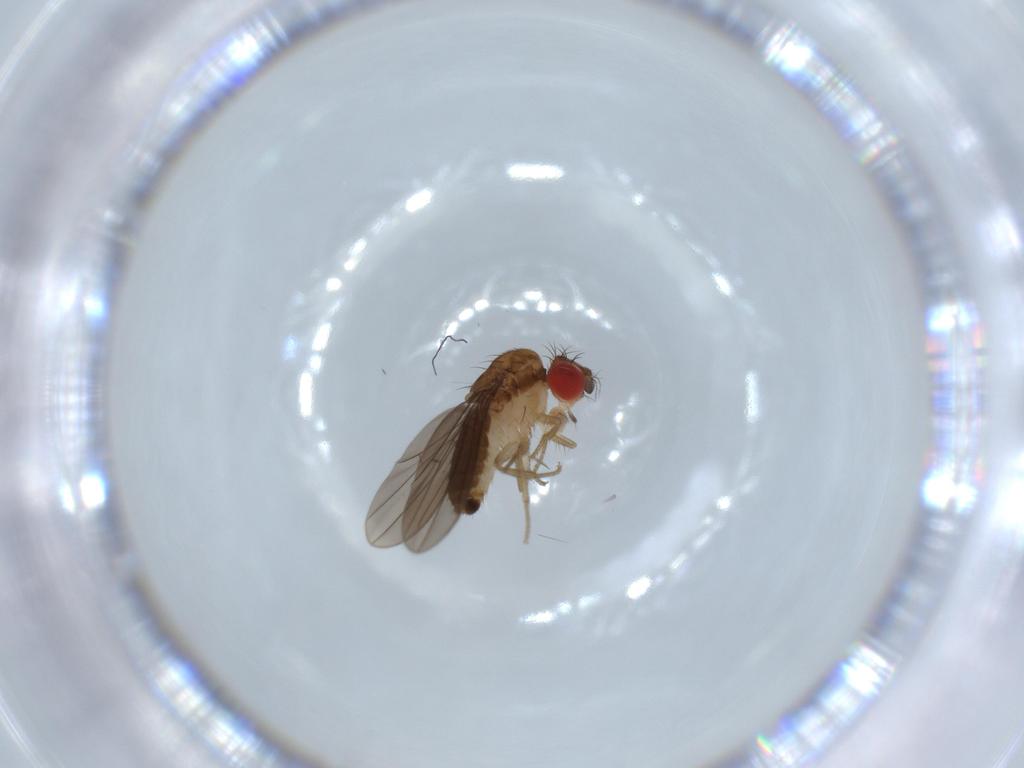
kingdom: Animalia
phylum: Arthropoda
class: Insecta
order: Diptera
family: Drosophilidae
